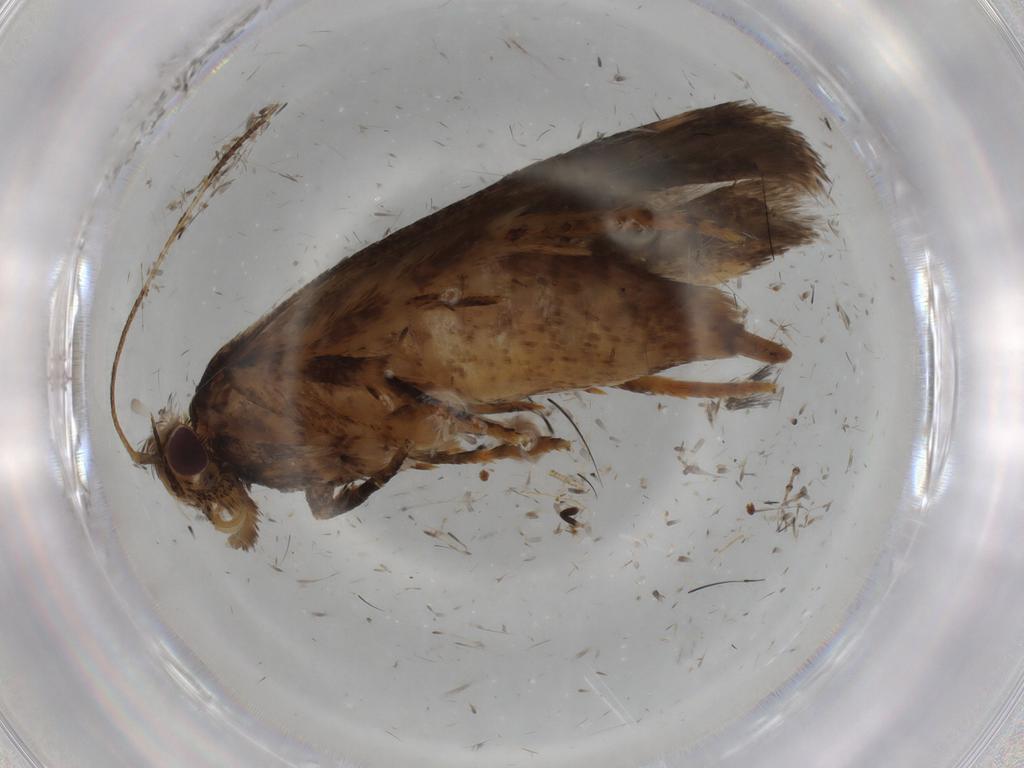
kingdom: Animalia
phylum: Arthropoda
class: Insecta
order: Lepidoptera
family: Gelechiidae
